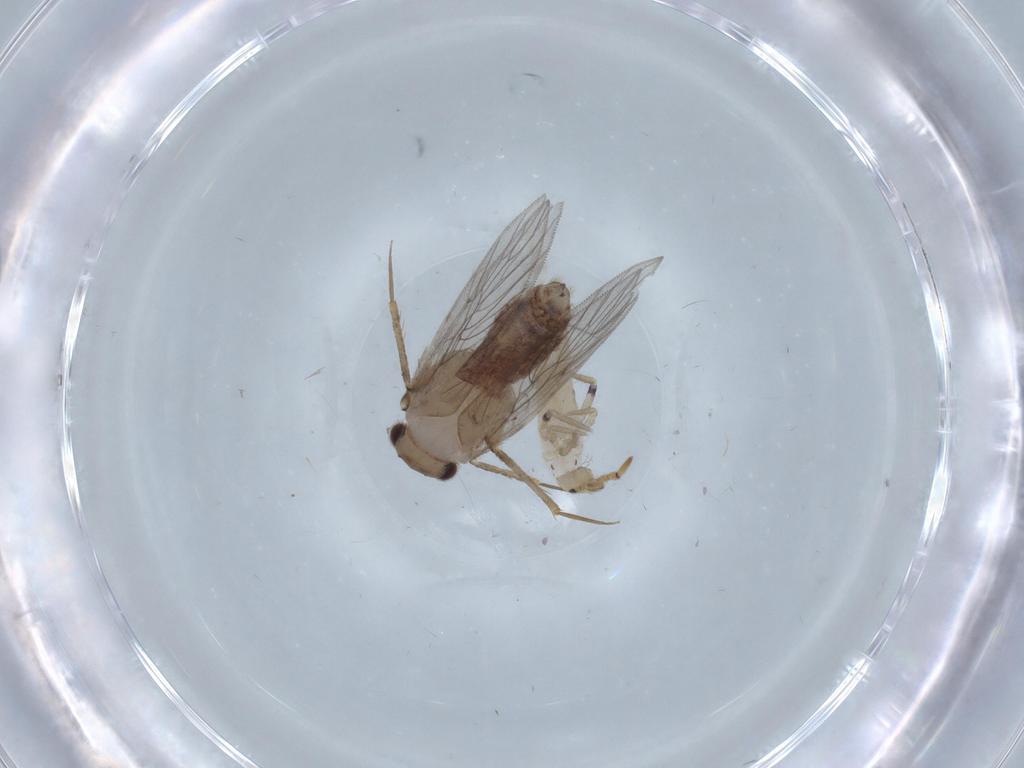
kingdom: Animalia
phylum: Arthropoda
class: Insecta
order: Psocodea
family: Lepidopsocidae
